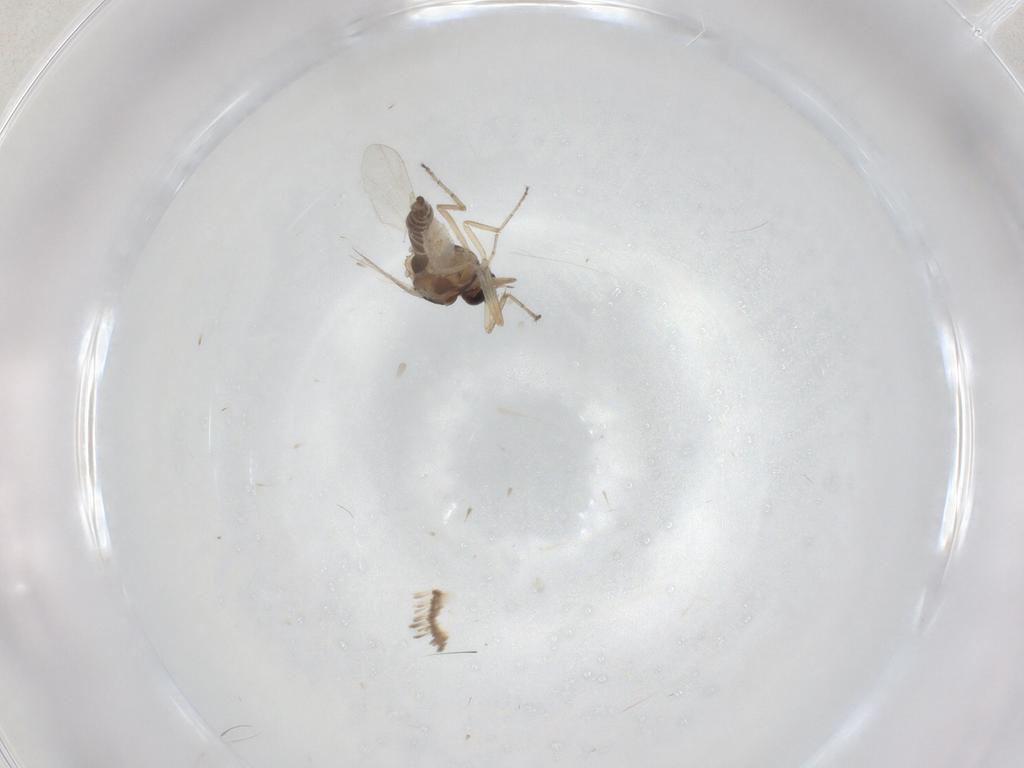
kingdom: Animalia
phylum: Arthropoda
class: Insecta
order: Diptera
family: Ceratopogonidae
